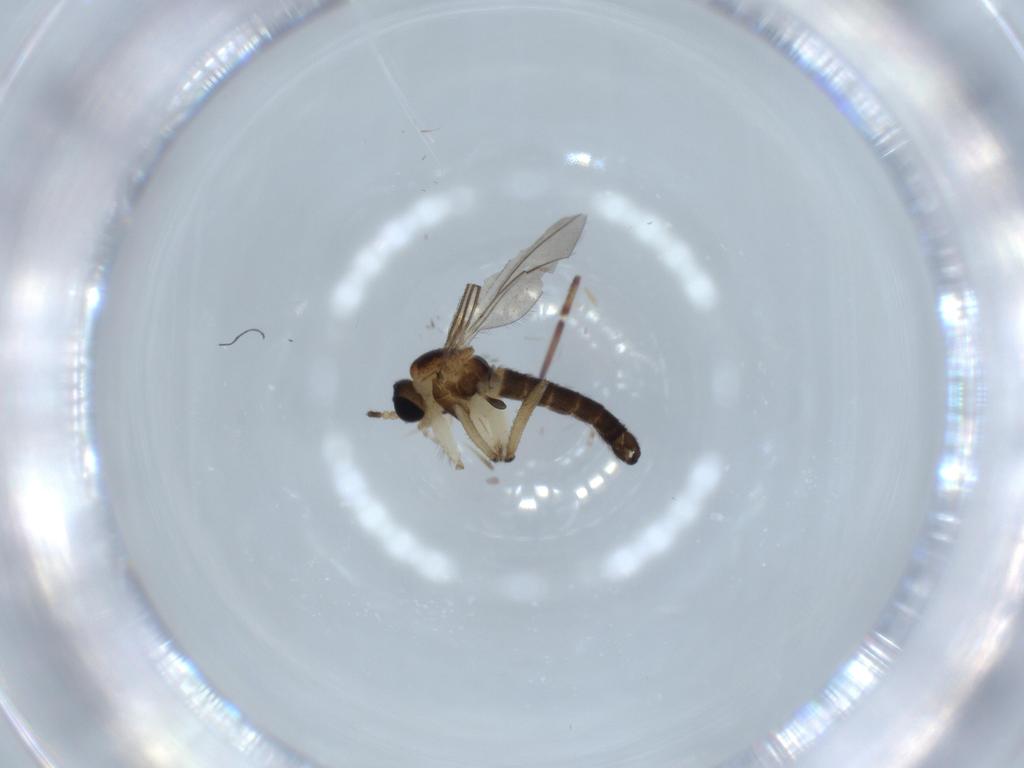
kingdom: Animalia
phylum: Arthropoda
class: Insecta
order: Diptera
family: Sciaridae
